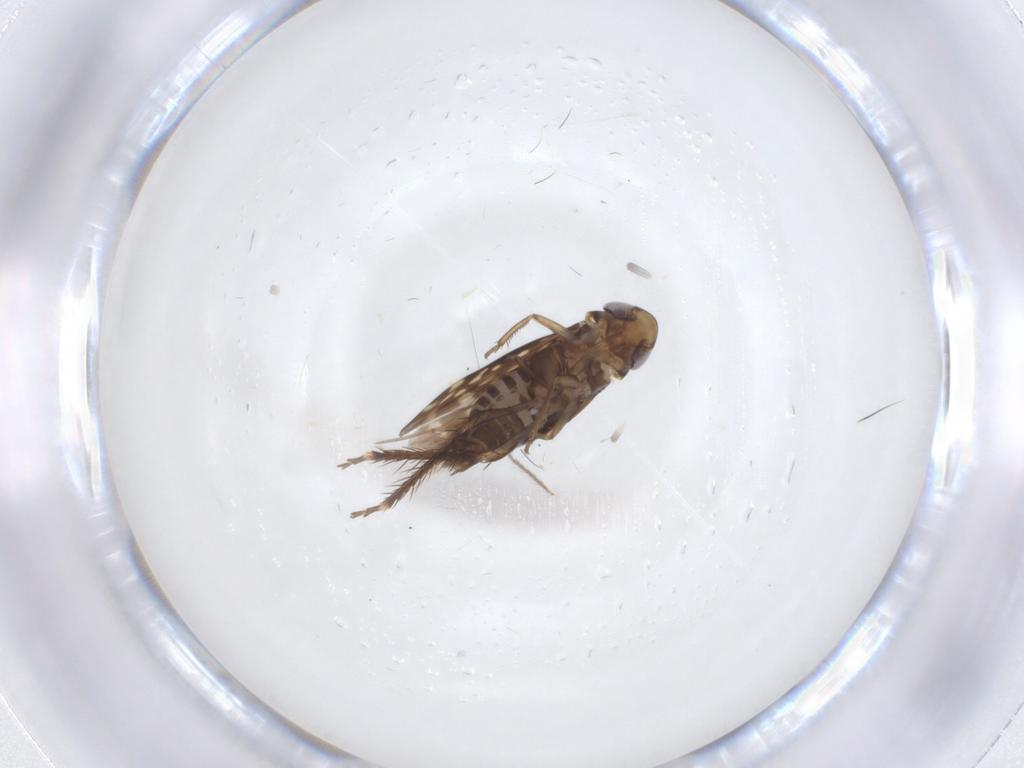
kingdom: Animalia
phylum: Arthropoda
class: Insecta
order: Hemiptera
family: Cicadellidae
